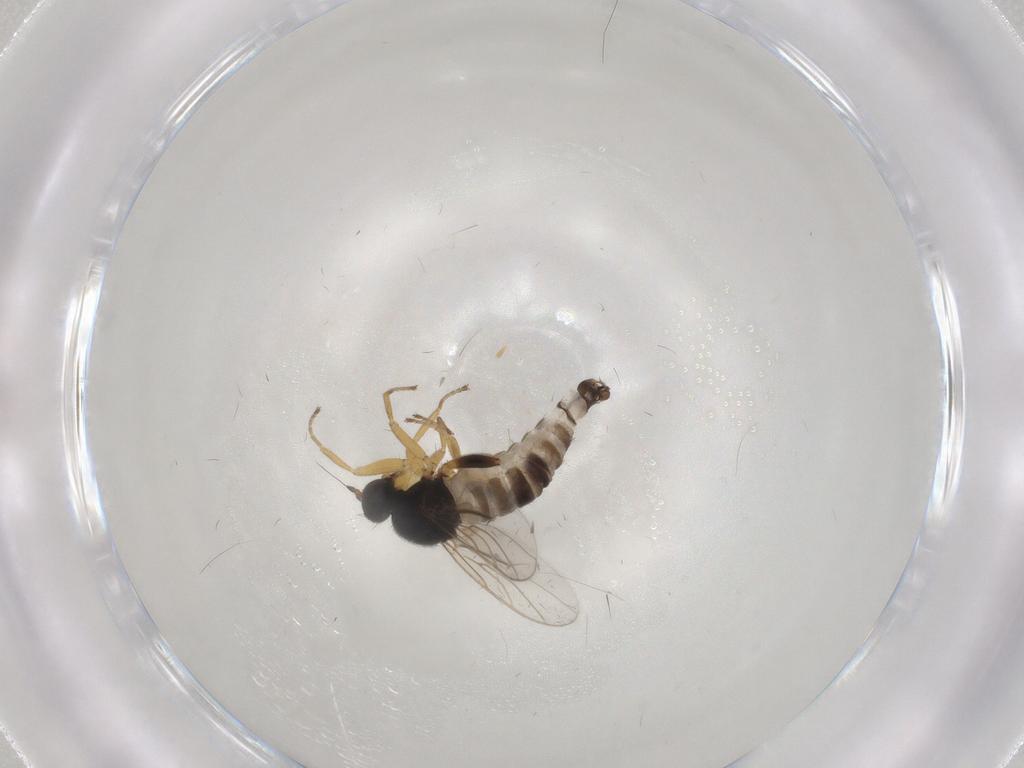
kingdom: Animalia
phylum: Arthropoda
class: Insecta
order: Diptera
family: Hybotidae
